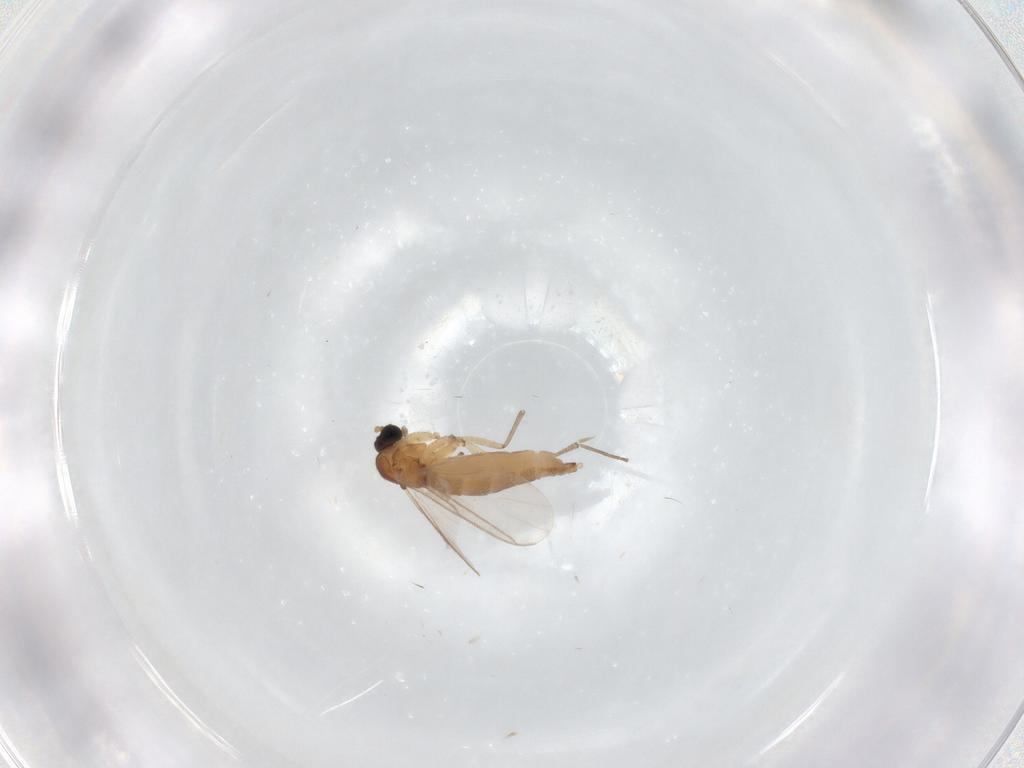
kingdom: Animalia
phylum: Arthropoda
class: Insecta
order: Diptera
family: Sciaridae
